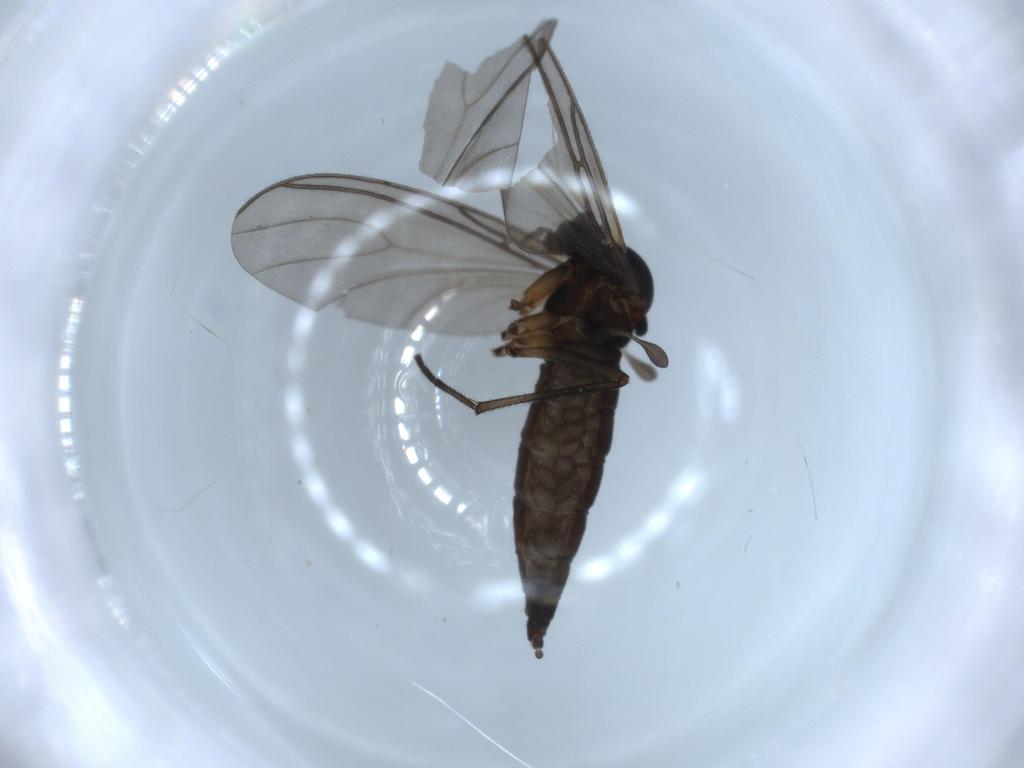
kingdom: Animalia
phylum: Arthropoda
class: Insecta
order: Diptera
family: Sciaridae
